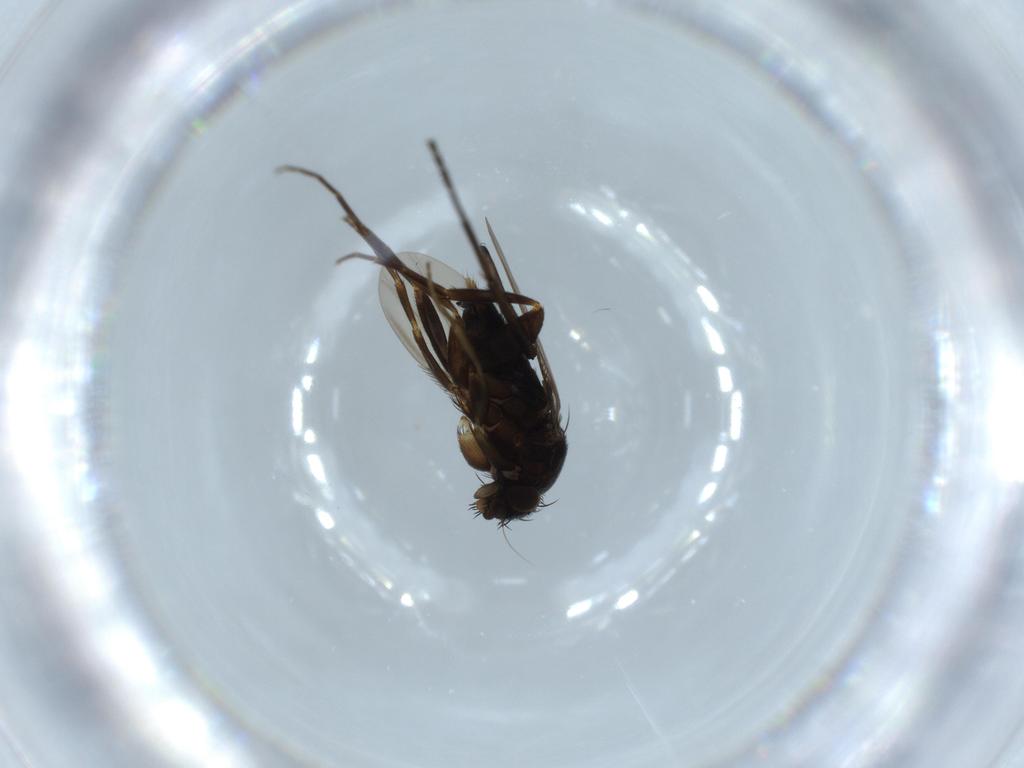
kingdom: Animalia
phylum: Arthropoda
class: Insecta
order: Diptera
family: Phoridae
